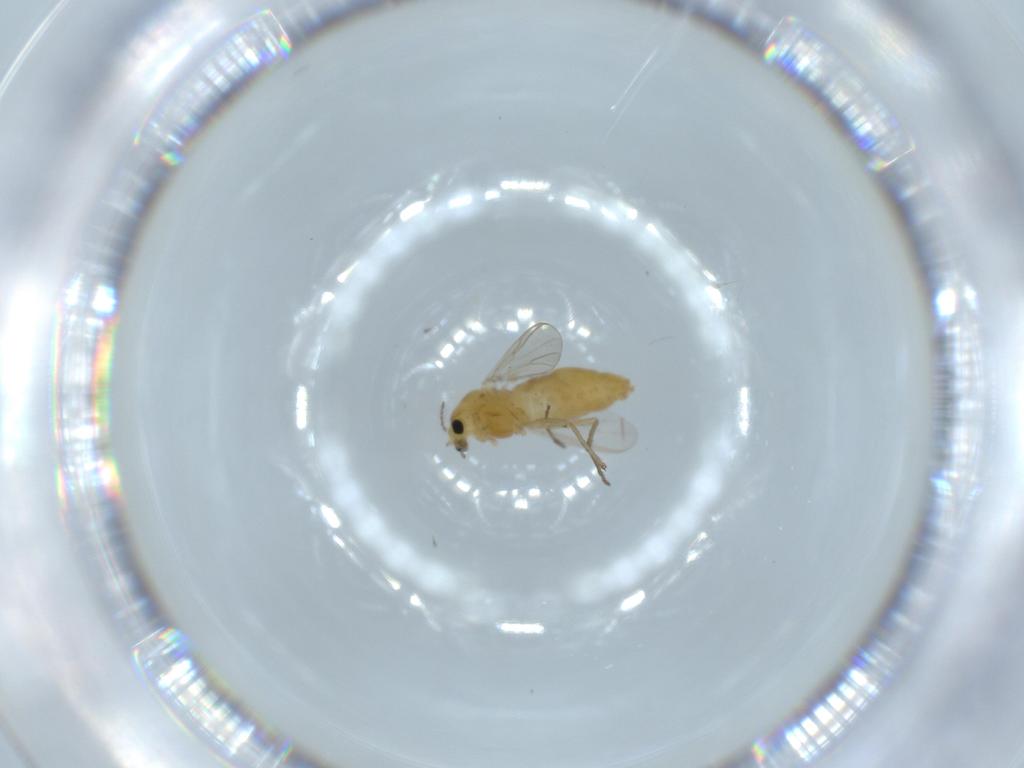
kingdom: Animalia
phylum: Arthropoda
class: Insecta
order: Diptera
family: Chironomidae
